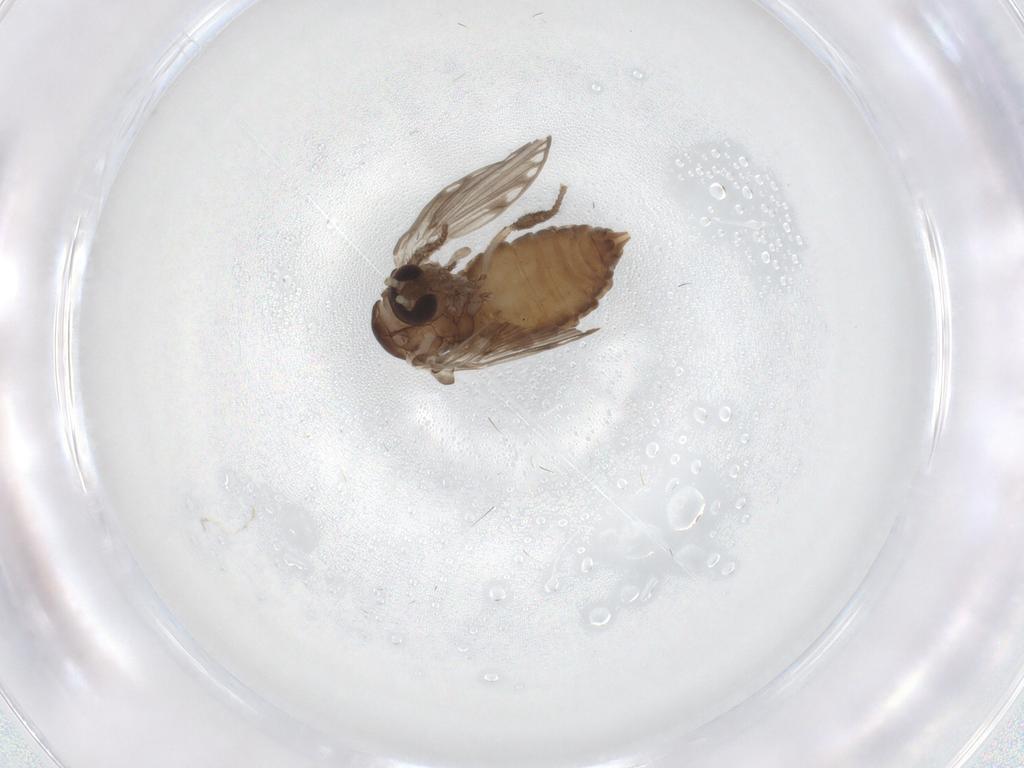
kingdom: Animalia
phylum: Arthropoda
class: Insecta
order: Diptera
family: Psychodidae
